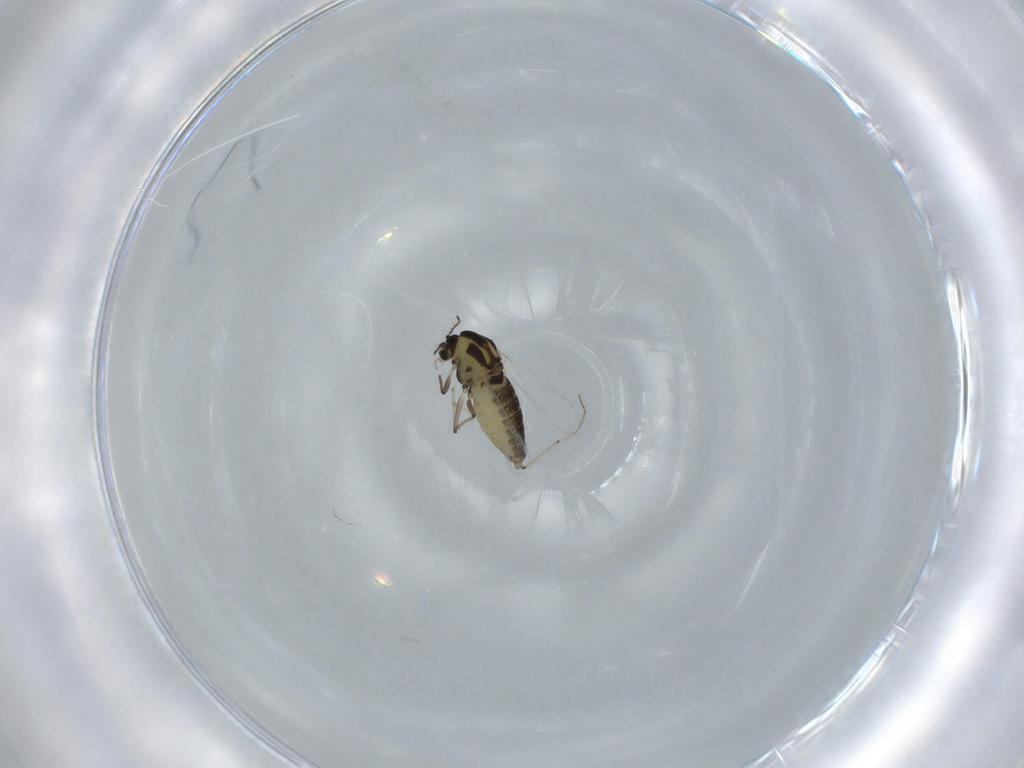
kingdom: Animalia
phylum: Arthropoda
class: Insecta
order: Diptera
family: Chironomidae
